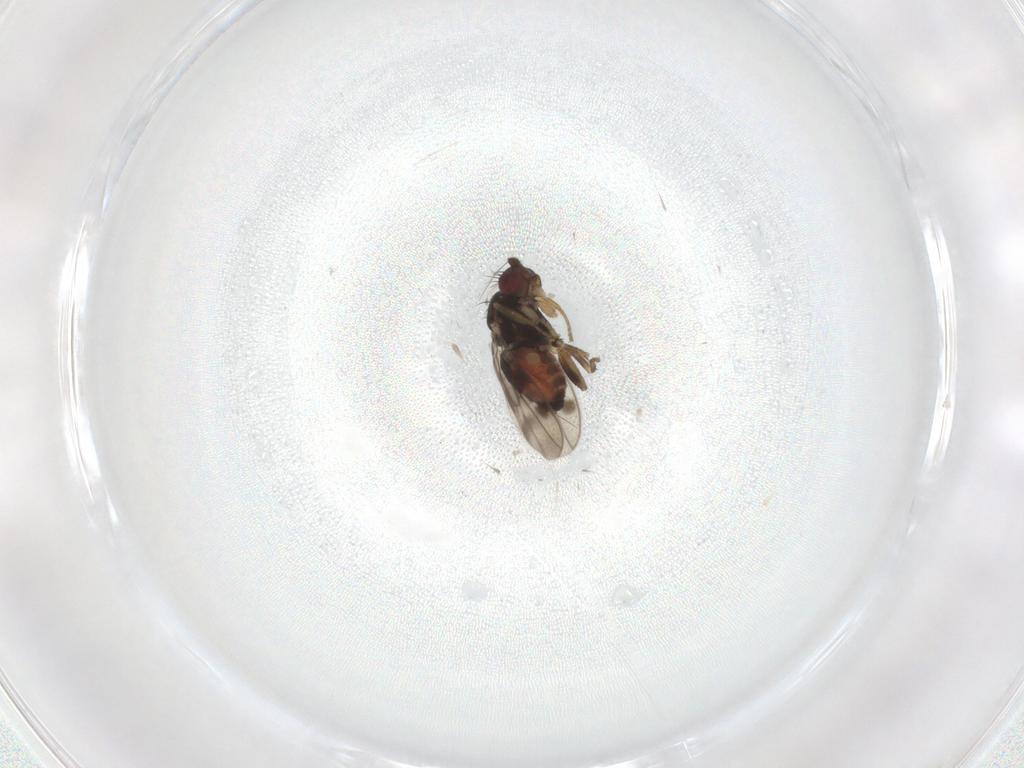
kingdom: Animalia
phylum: Arthropoda
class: Insecta
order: Diptera
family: Sphaeroceridae
